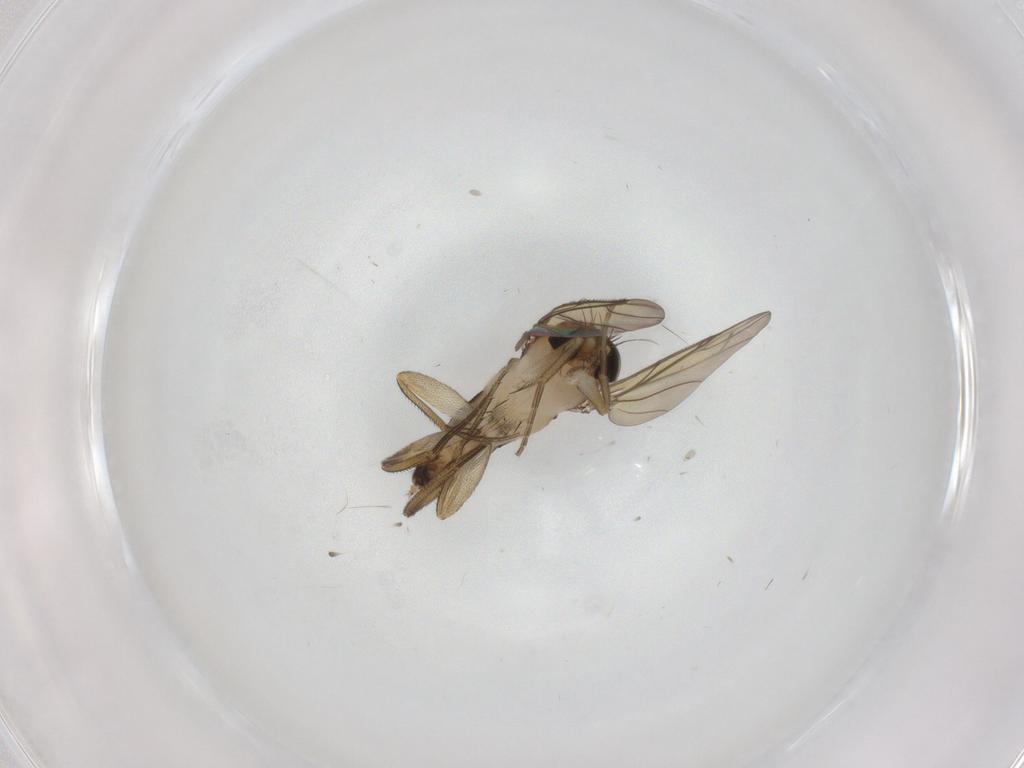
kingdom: Animalia
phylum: Arthropoda
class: Insecta
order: Diptera
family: Phoridae
